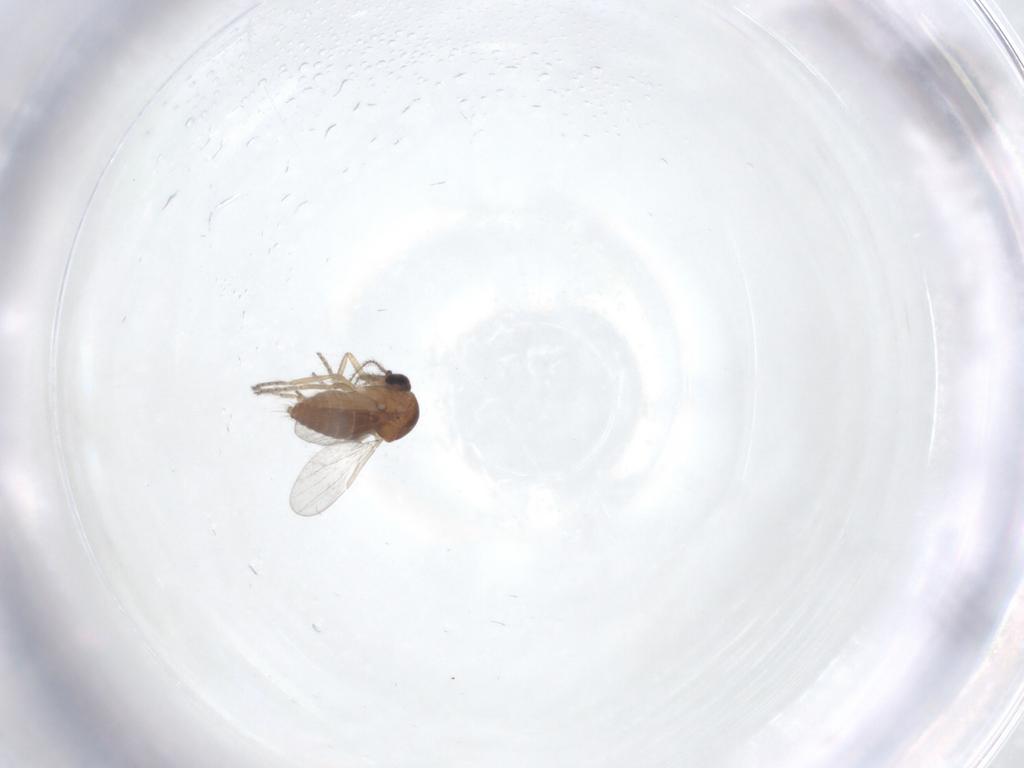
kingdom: Animalia
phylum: Arthropoda
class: Insecta
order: Diptera
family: Ceratopogonidae
